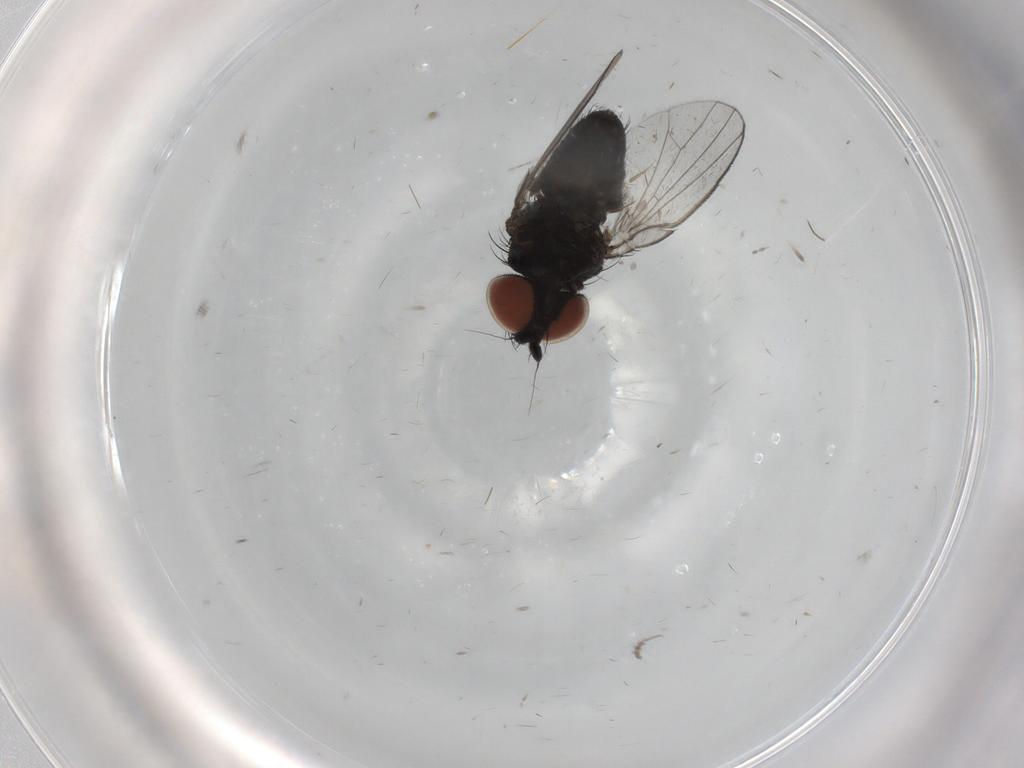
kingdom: Animalia
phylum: Arthropoda
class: Insecta
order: Diptera
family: Milichiidae
